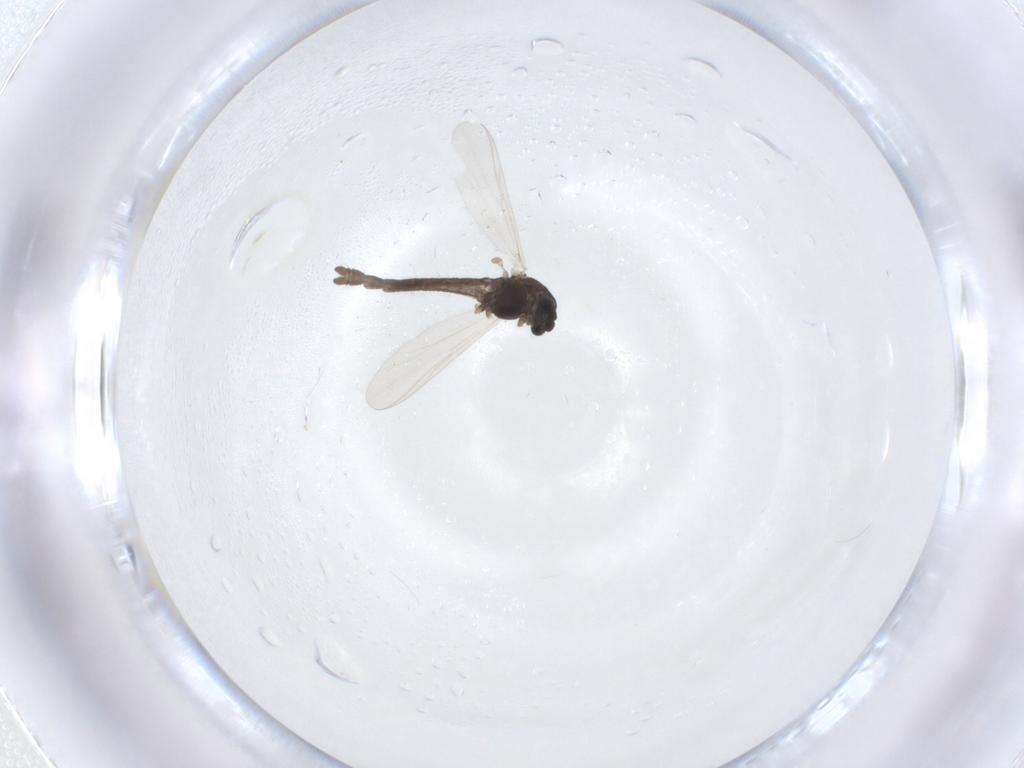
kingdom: Animalia
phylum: Arthropoda
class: Insecta
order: Diptera
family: Chironomidae
